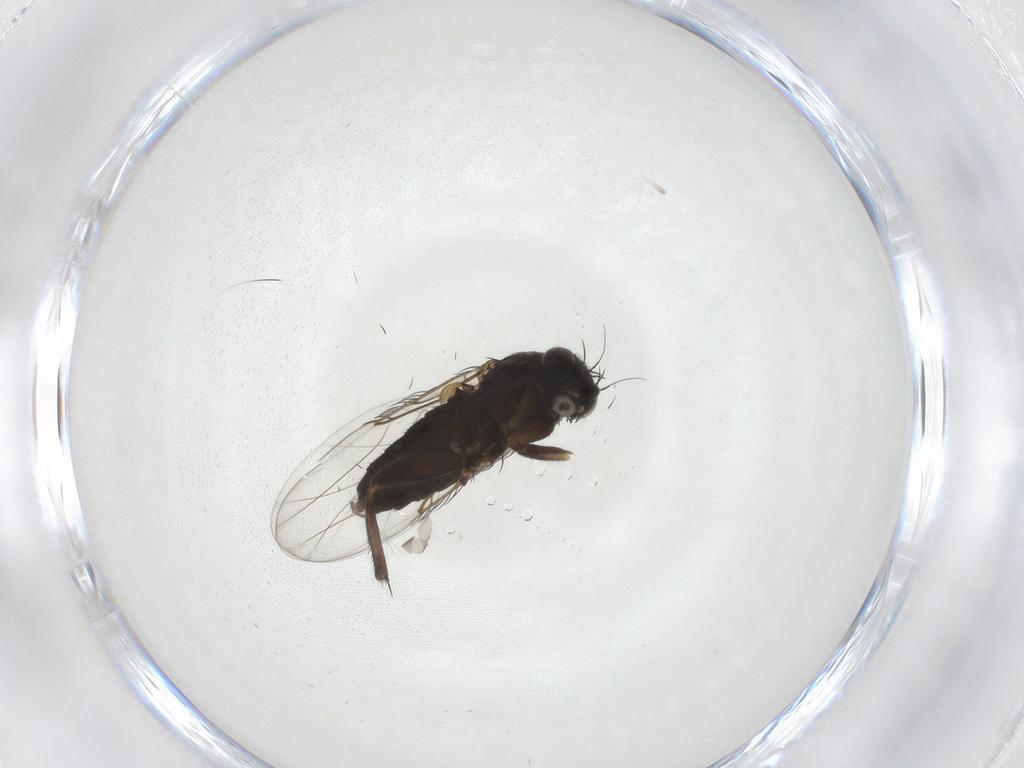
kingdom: Animalia
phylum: Arthropoda
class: Insecta
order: Diptera
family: Phoridae
